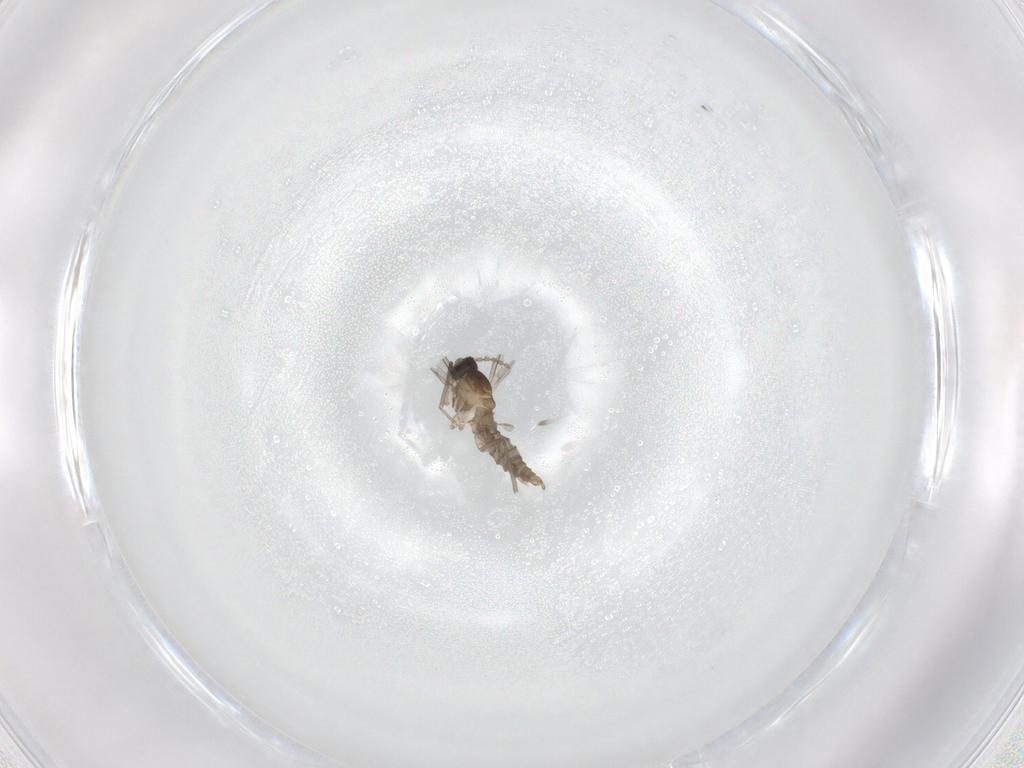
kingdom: Animalia
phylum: Arthropoda
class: Insecta
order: Diptera
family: Cecidomyiidae
